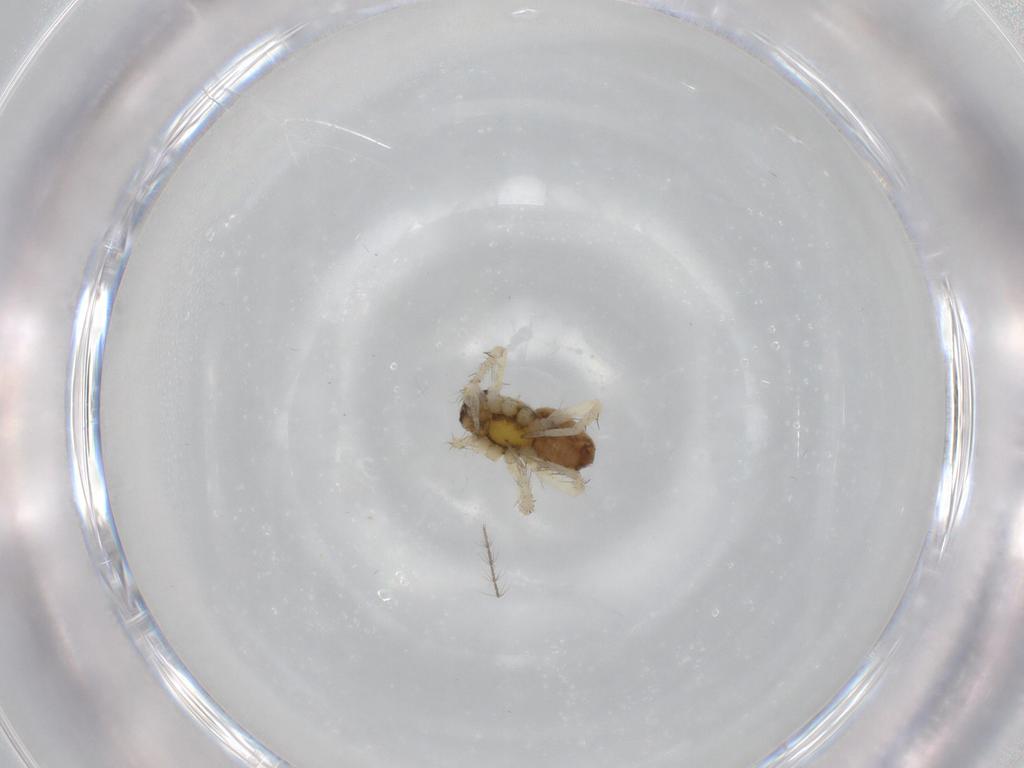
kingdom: Animalia
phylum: Arthropoda
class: Arachnida
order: Araneae
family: Pisauridae
